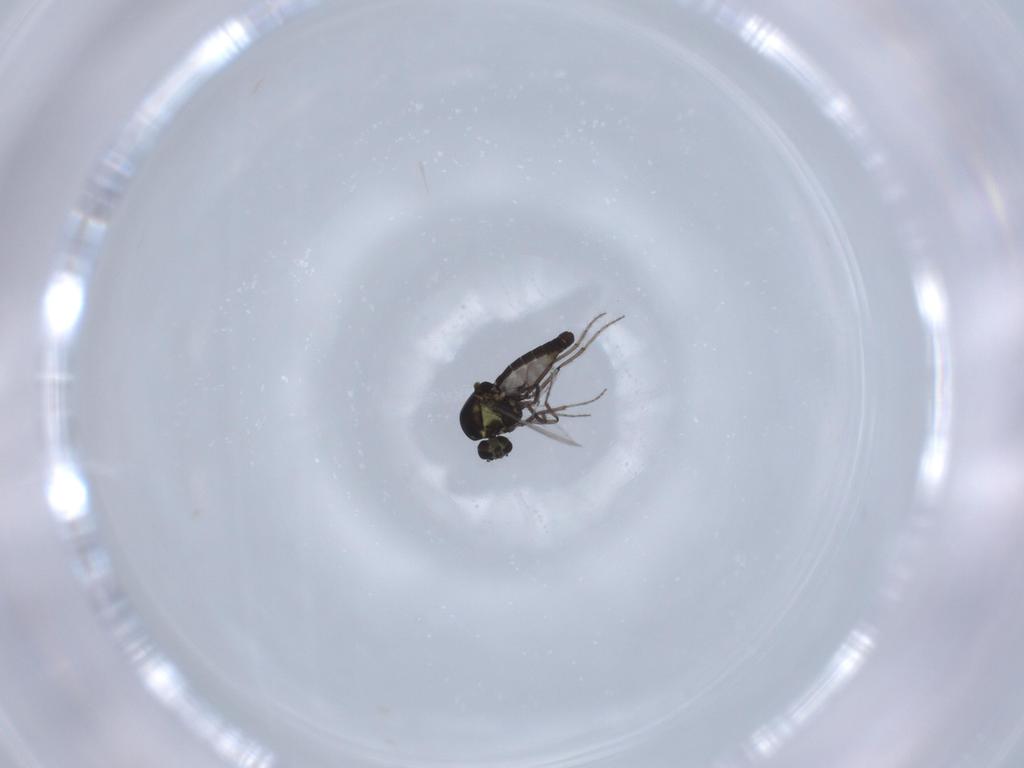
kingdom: Animalia
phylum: Arthropoda
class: Insecta
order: Diptera
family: Ceratopogonidae
